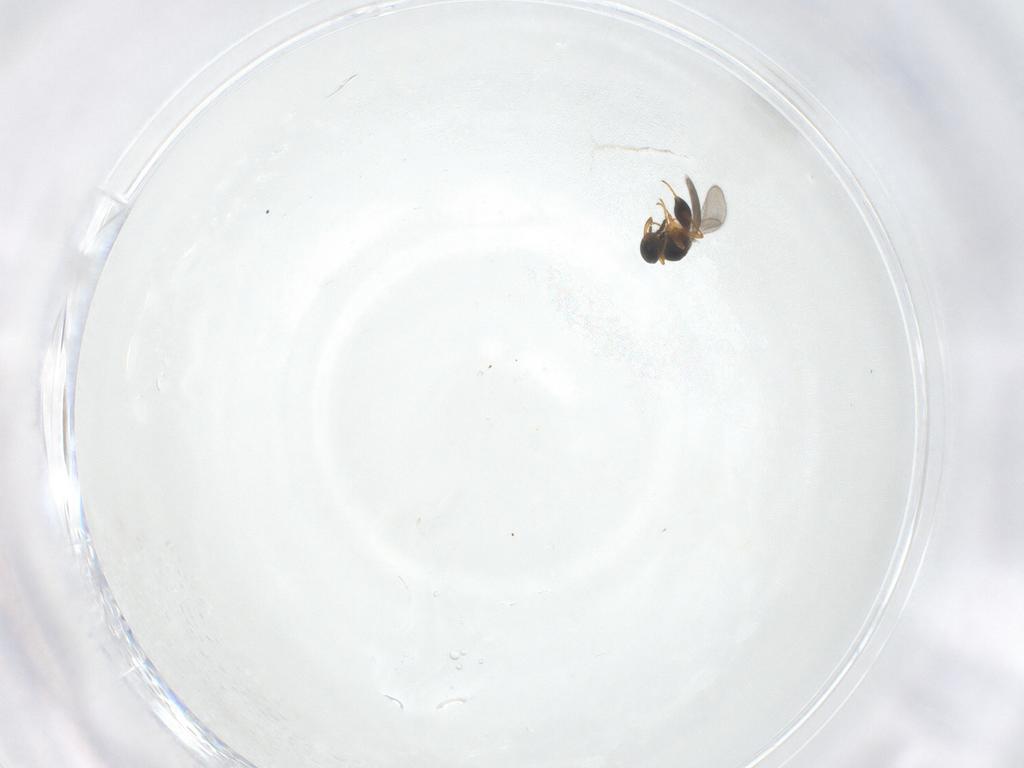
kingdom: Animalia
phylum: Arthropoda
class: Insecta
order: Hymenoptera
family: Platygastridae
